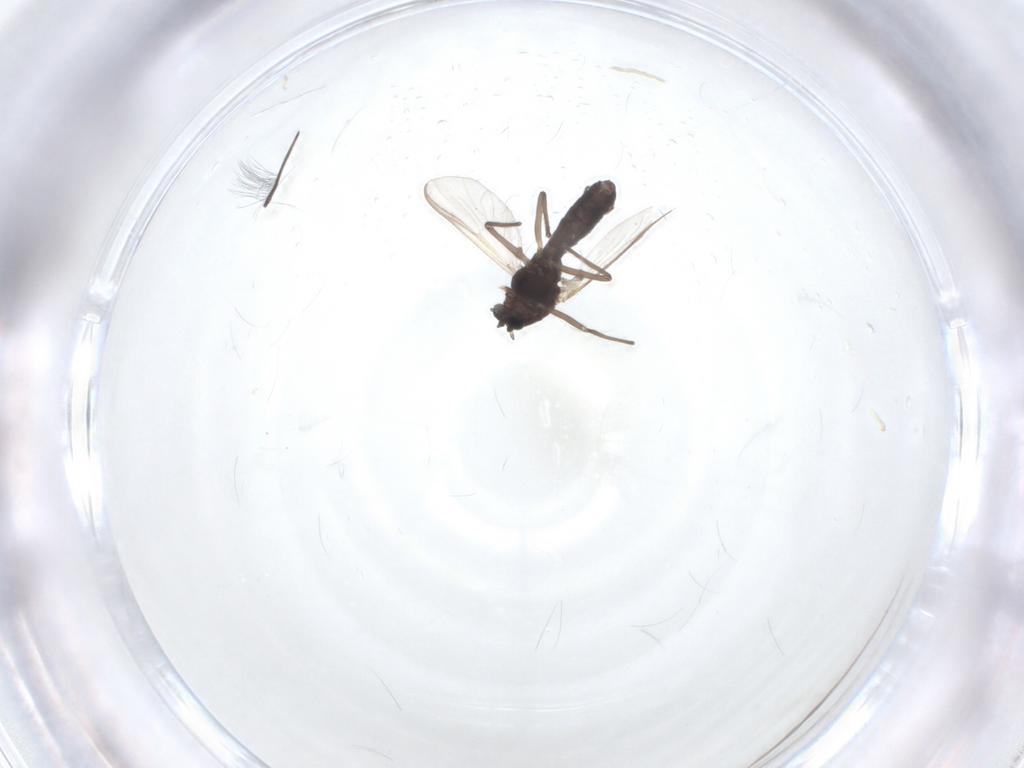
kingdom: Animalia
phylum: Arthropoda
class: Insecta
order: Diptera
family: Chironomidae
